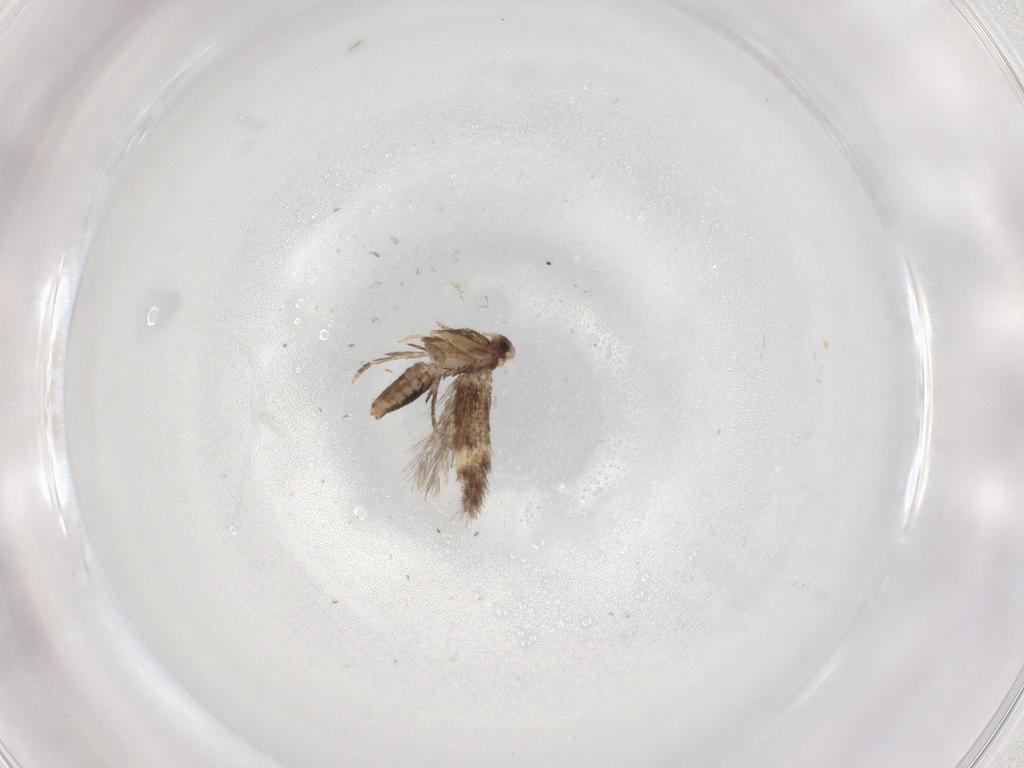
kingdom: Animalia
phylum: Arthropoda
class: Insecta
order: Lepidoptera
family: Nepticulidae
